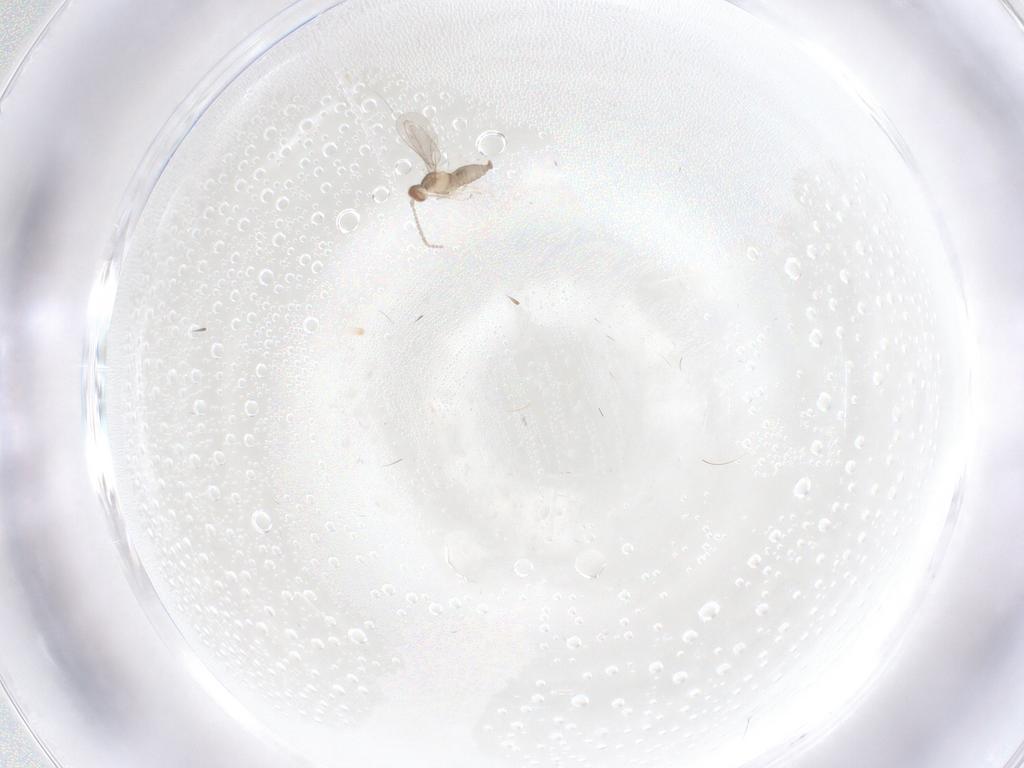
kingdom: Animalia
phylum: Arthropoda
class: Insecta
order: Diptera
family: Cecidomyiidae
